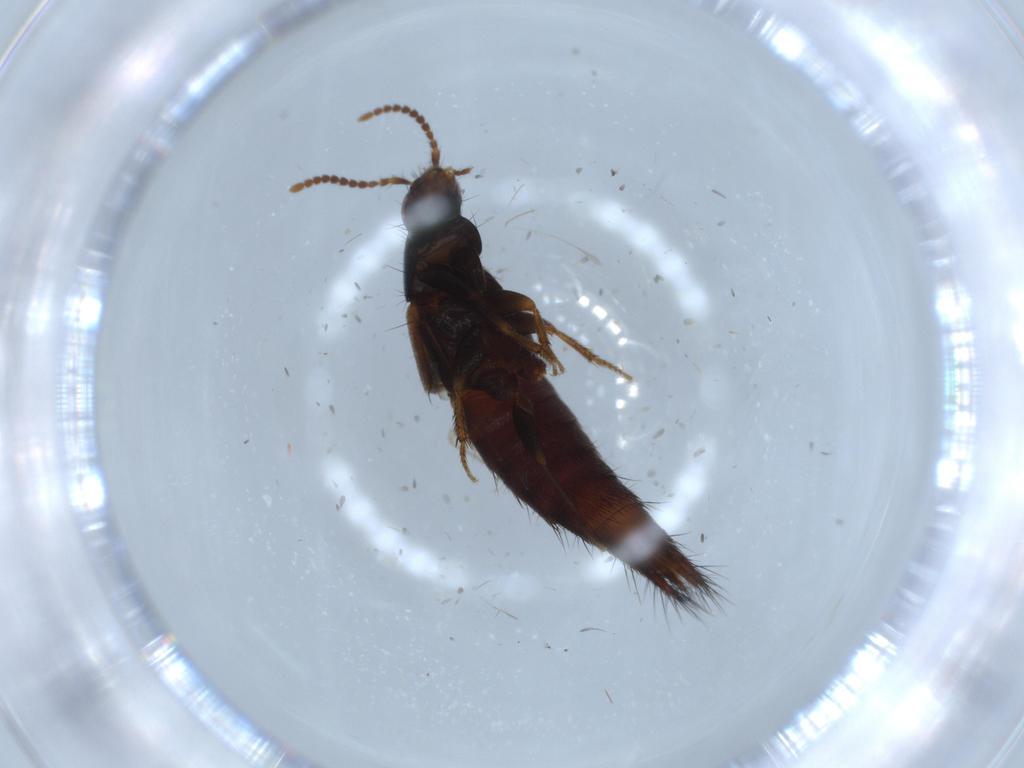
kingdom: Animalia
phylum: Arthropoda
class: Insecta
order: Coleoptera
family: Staphylinidae
